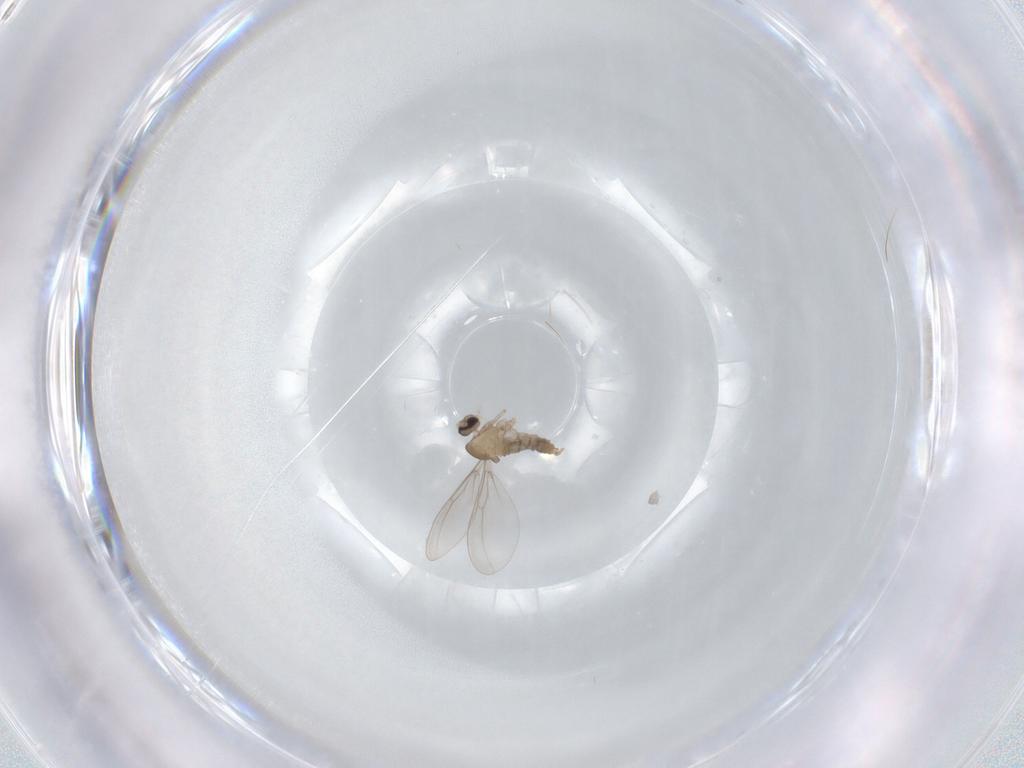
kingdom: Animalia
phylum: Arthropoda
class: Insecta
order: Diptera
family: Cecidomyiidae
